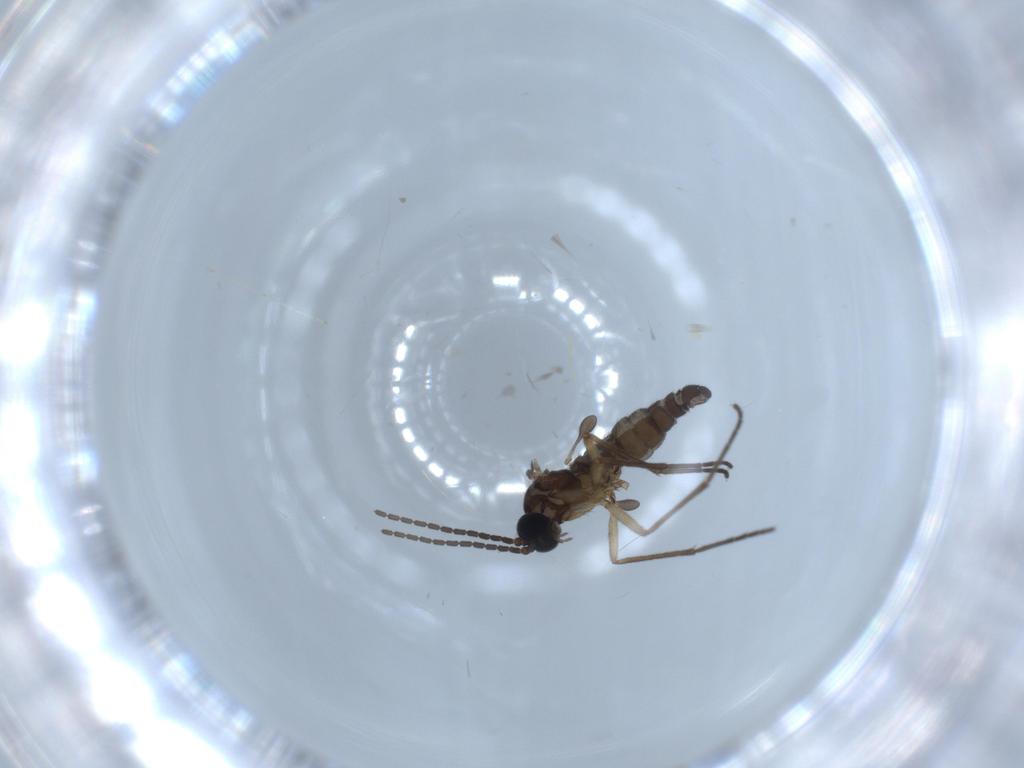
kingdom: Animalia
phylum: Arthropoda
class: Insecta
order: Diptera
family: Sciaridae
